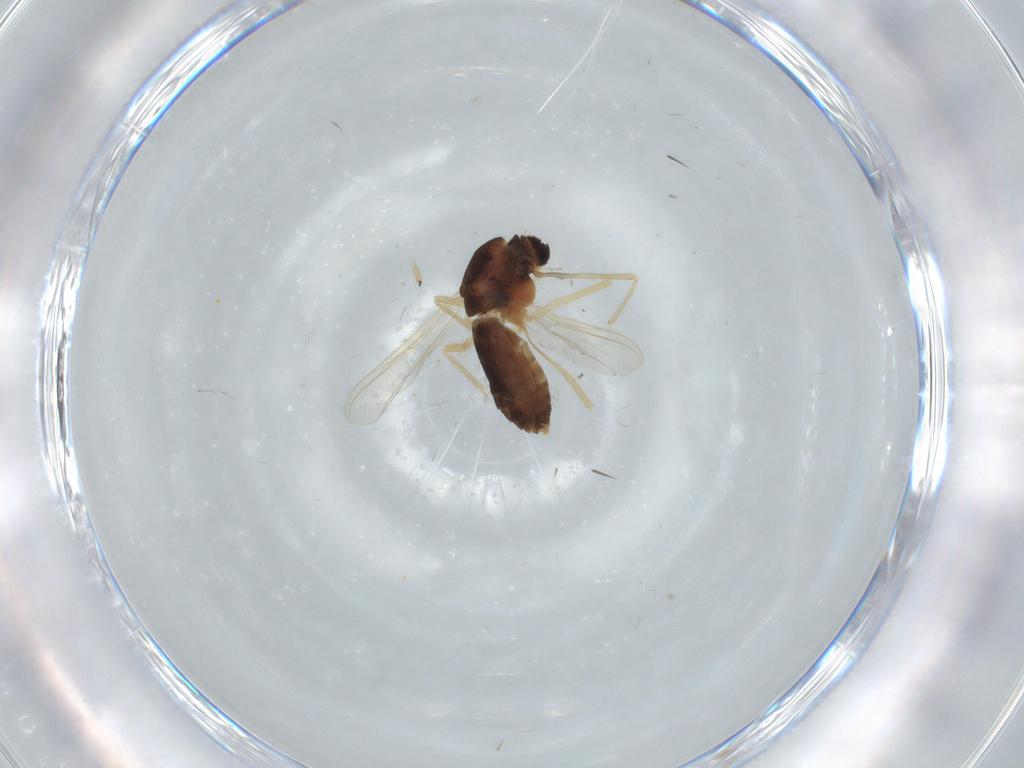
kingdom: Animalia
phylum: Arthropoda
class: Insecta
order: Diptera
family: Chironomidae
